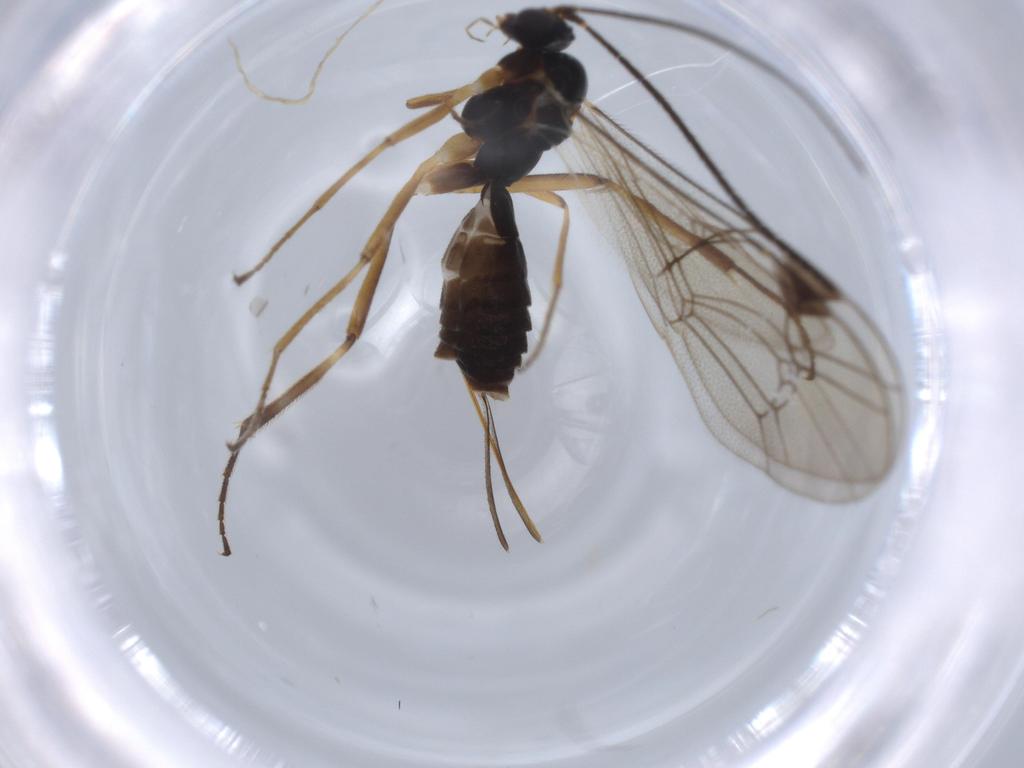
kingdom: Animalia
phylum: Arthropoda
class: Insecta
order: Hymenoptera
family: Ichneumonidae
